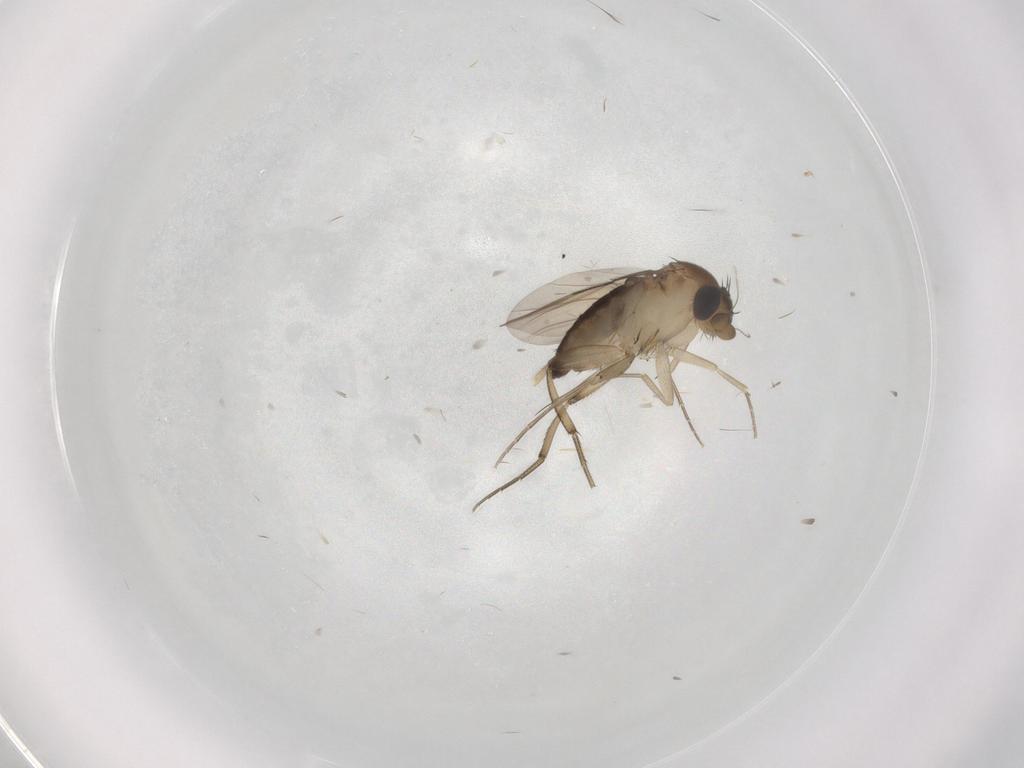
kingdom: Animalia
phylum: Arthropoda
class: Insecta
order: Diptera
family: Phoridae
